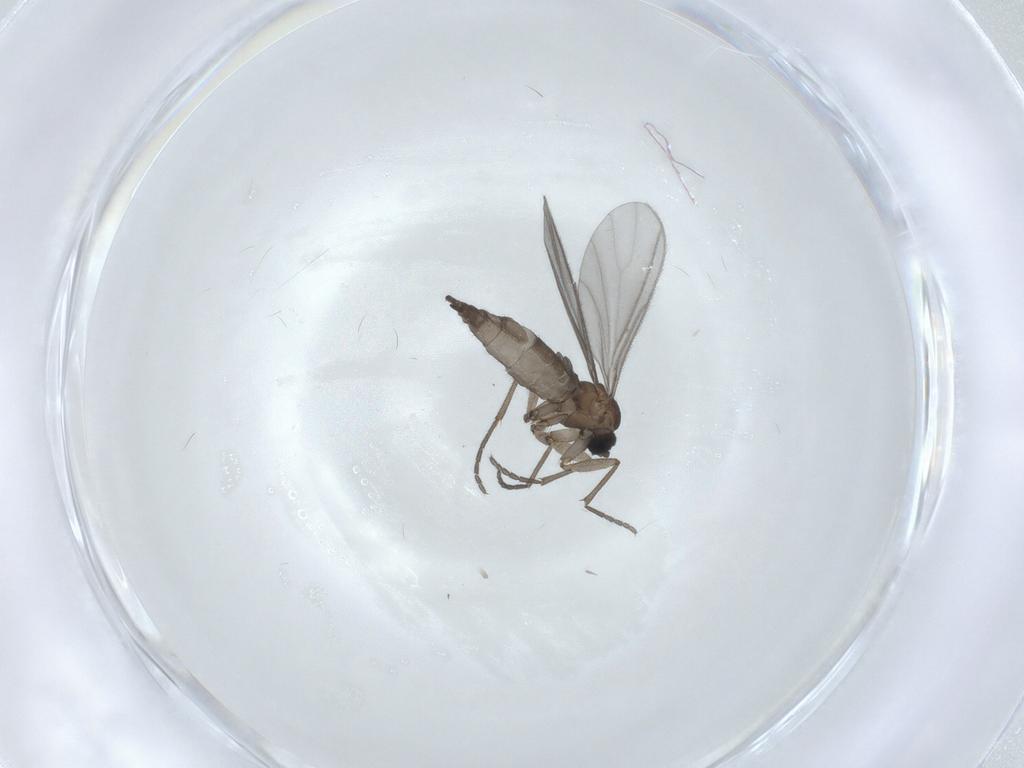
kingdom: Animalia
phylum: Arthropoda
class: Insecta
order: Diptera
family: Sciaridae
